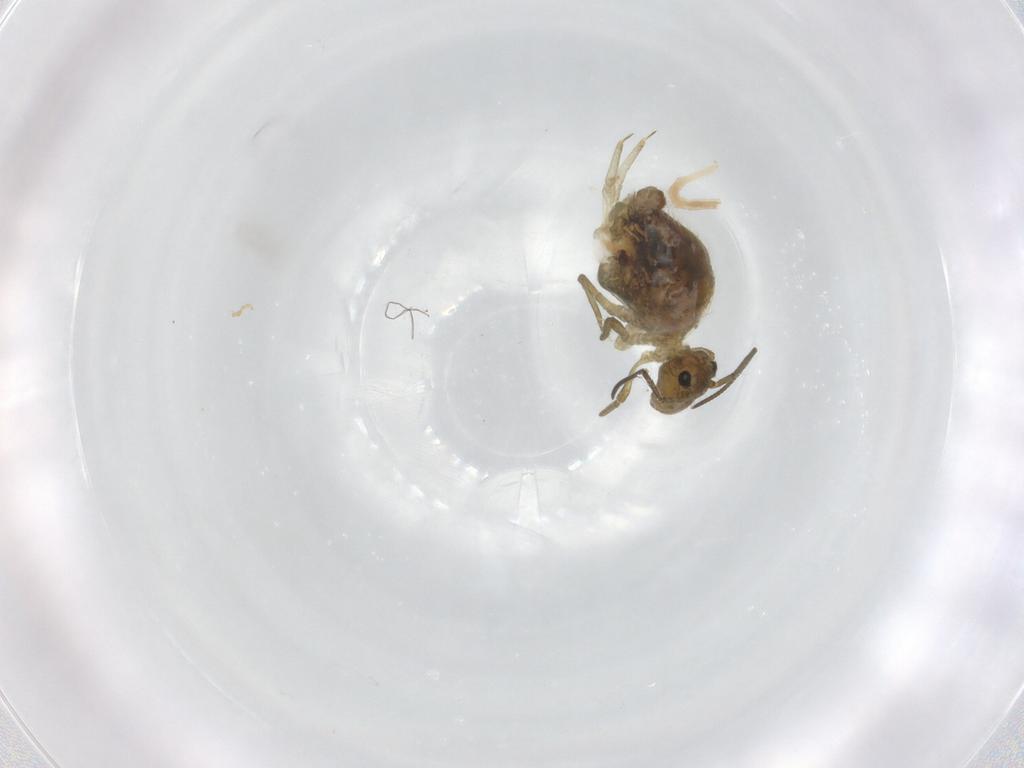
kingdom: Animalia
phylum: Arthropoda
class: Collembola
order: Symphypleona
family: Sminthuridae
